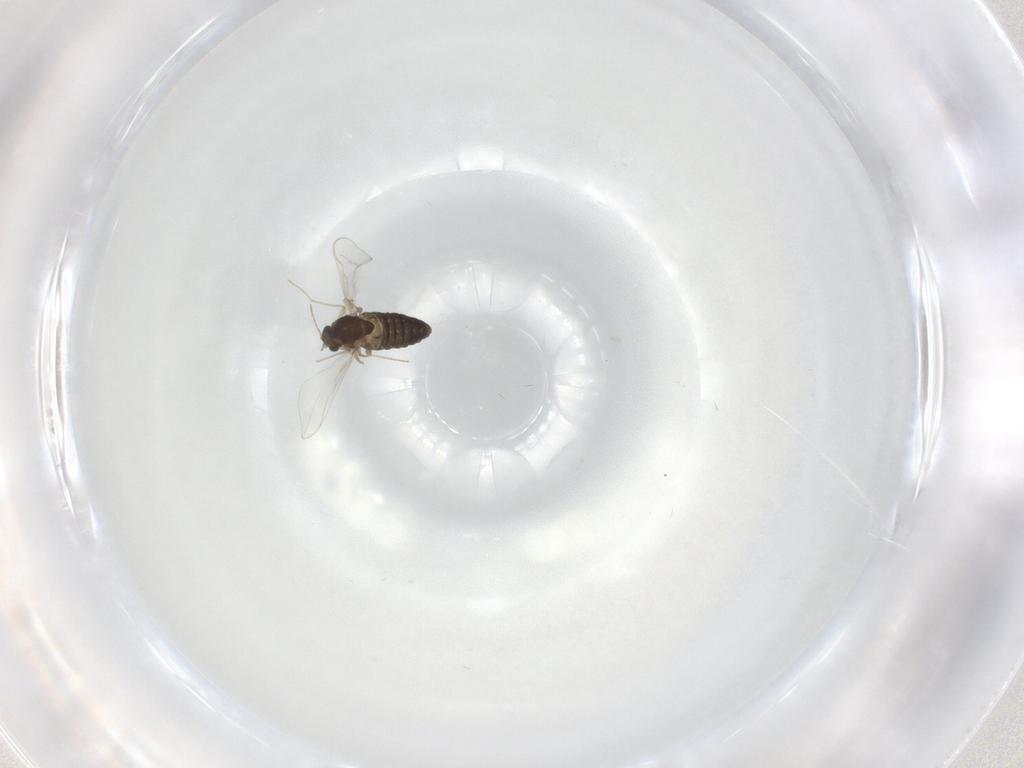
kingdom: Animalia
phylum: Arthropoda
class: Insecta
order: Diptera
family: Chironomidae
